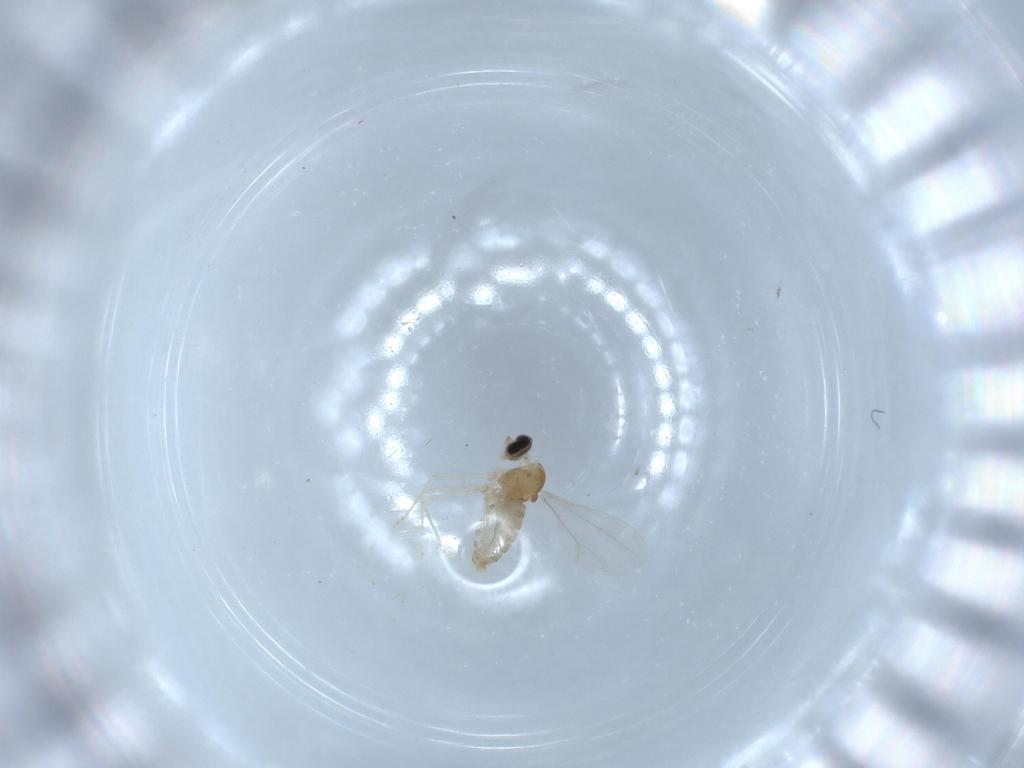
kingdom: Animalia
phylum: Arthropoda
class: Insecta
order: Diptera
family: Cecidomyiidae
